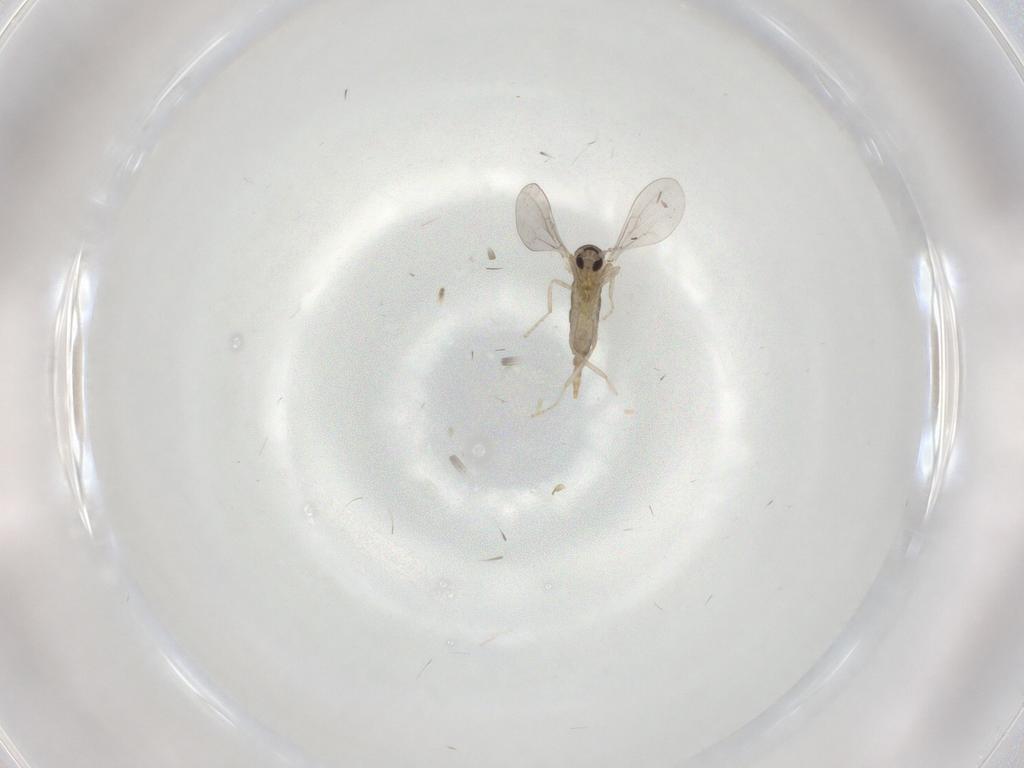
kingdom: Animalia
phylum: Arthropoda
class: Insecta
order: Diptera
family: Cecidomyiidae
